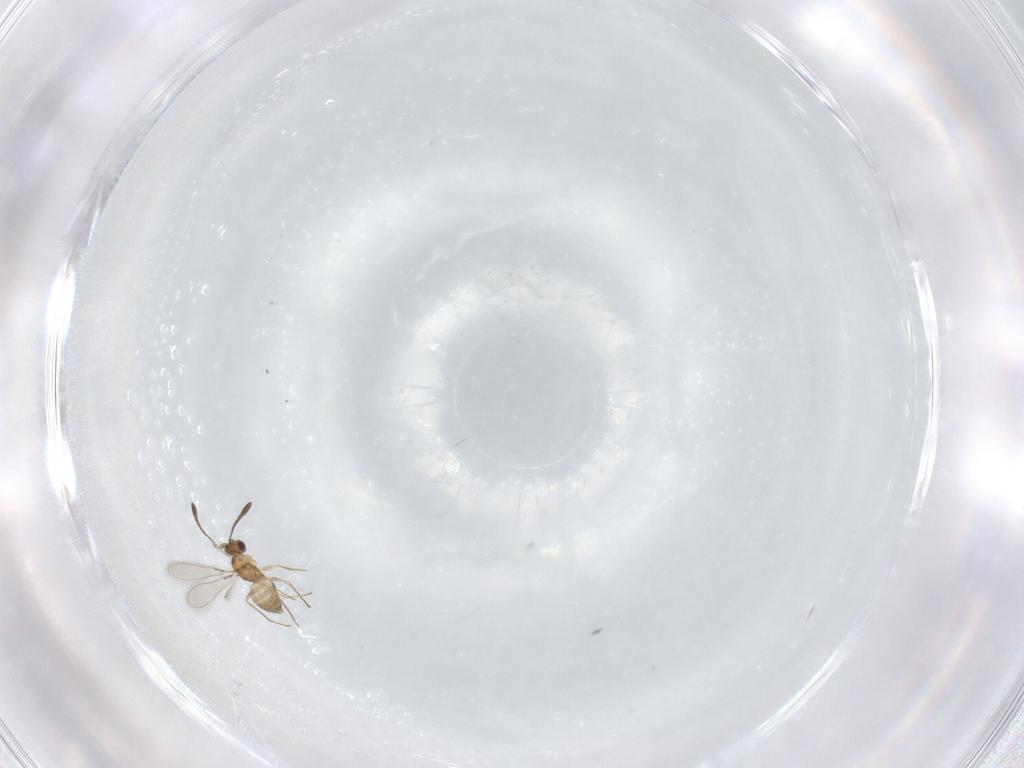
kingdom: Animalia
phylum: Arthropoda
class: Insecta
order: Hymenoptera
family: Mymaridae
